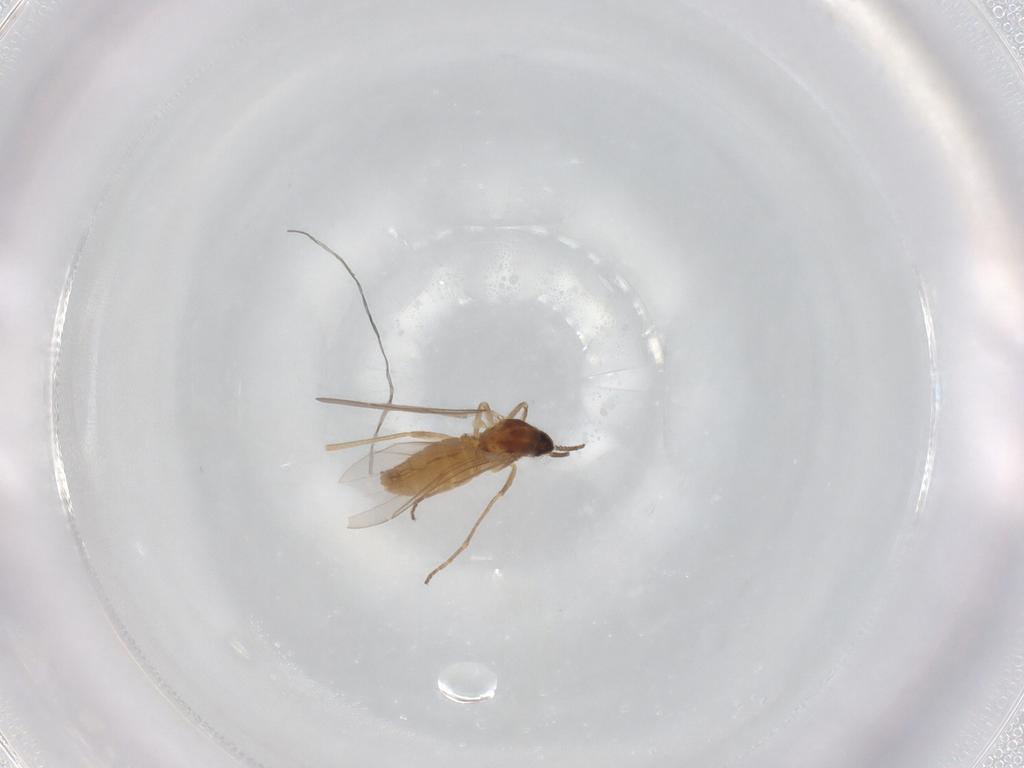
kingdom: Animalia
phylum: Arthropoda
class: Insecta
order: Diptera
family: Cecidomyiidae
